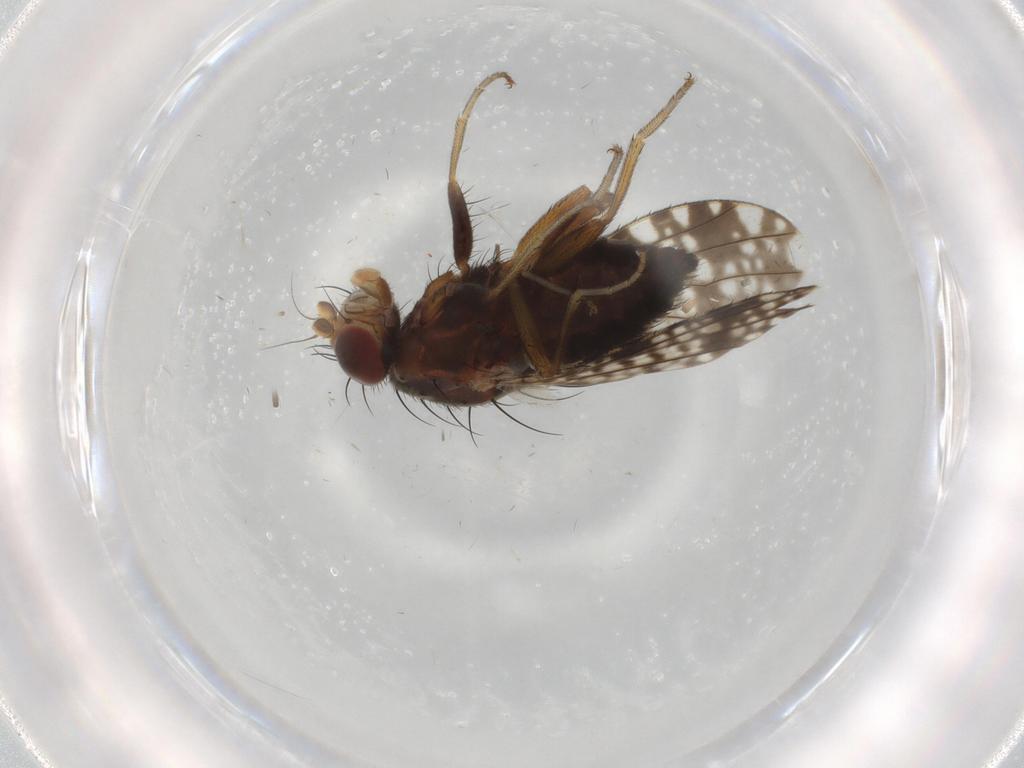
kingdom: Animalia
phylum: Arthropoda
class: Insecta
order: Diptera
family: Tephritidae
